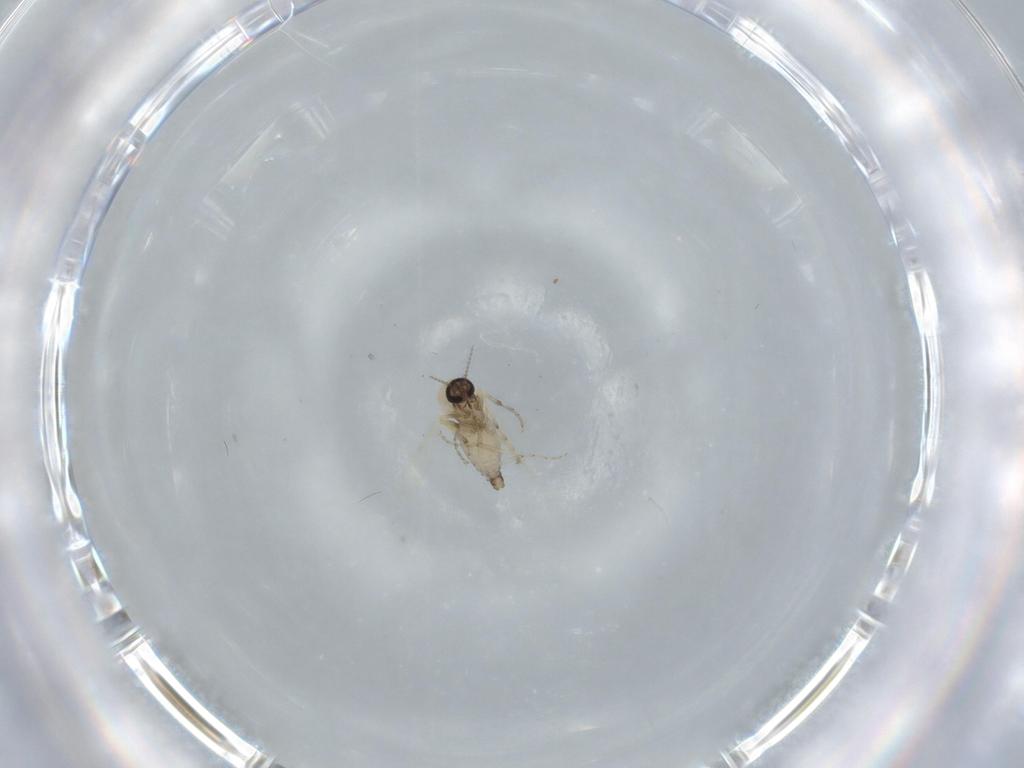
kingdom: Animalia
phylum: Arthropoda
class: Insecta
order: Diptera
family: Ceratopogonidae
